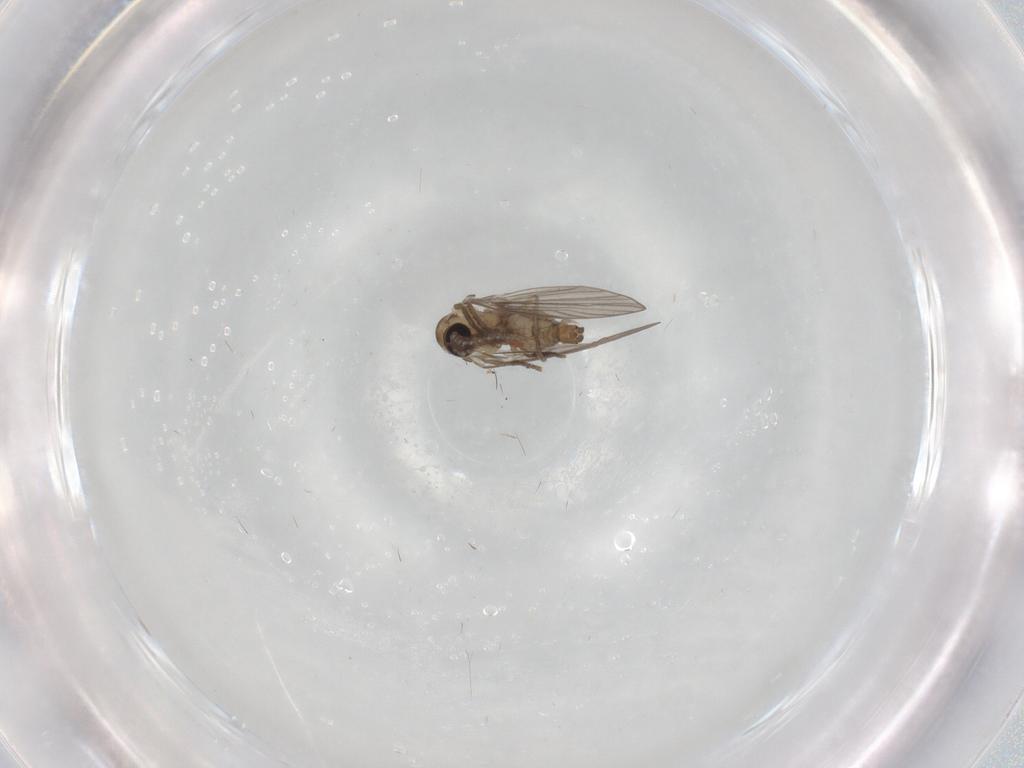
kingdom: Animalia
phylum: Arthropoda
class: Insecta
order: Diptera
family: Psychodidae
